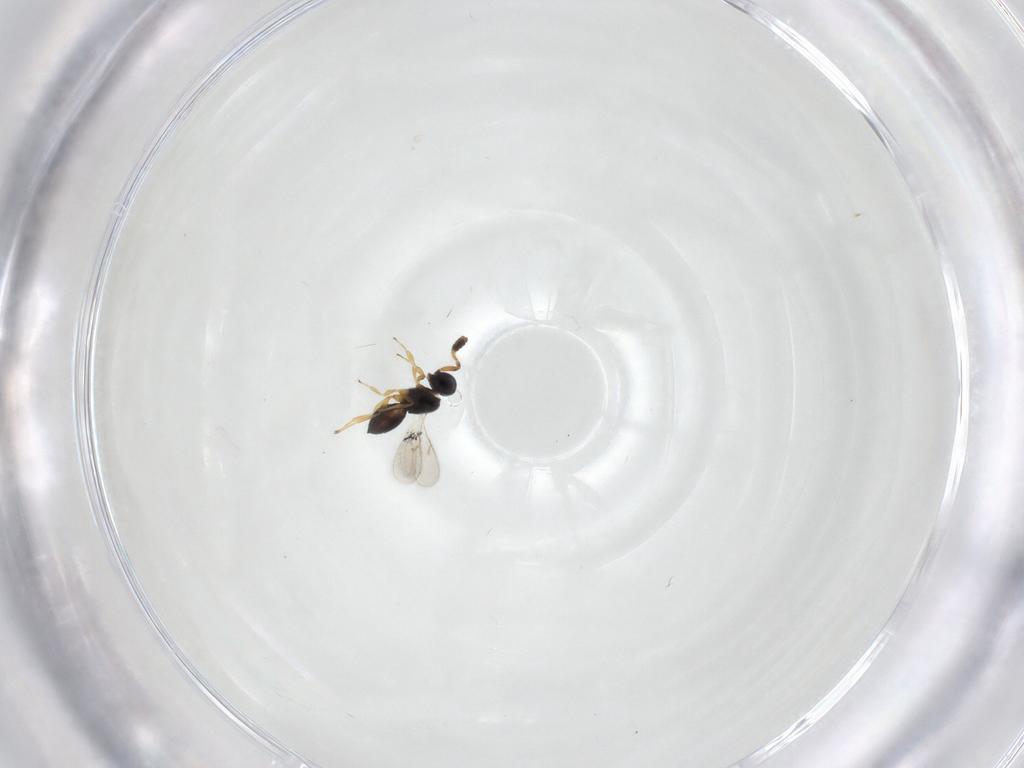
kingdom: Animalia
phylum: Arthropoda
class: Insecta
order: Hymenoptera
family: Scelionidae
